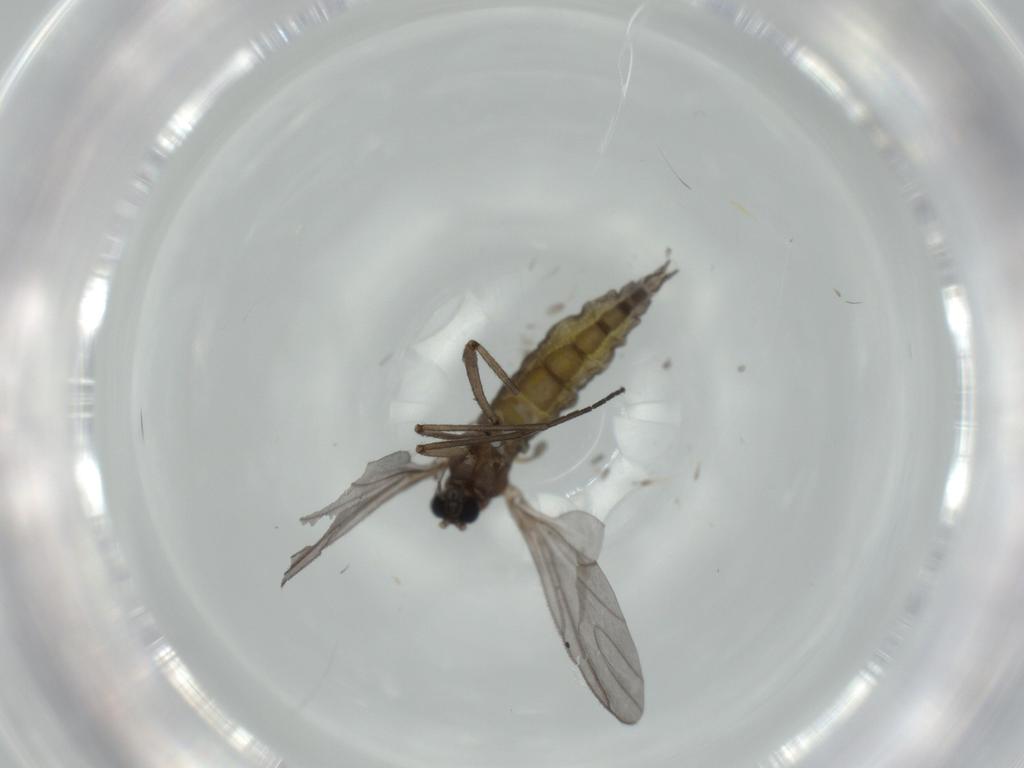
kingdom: Animalia
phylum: Arthropoda
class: Insecta
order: Diptera
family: Sciaridae
